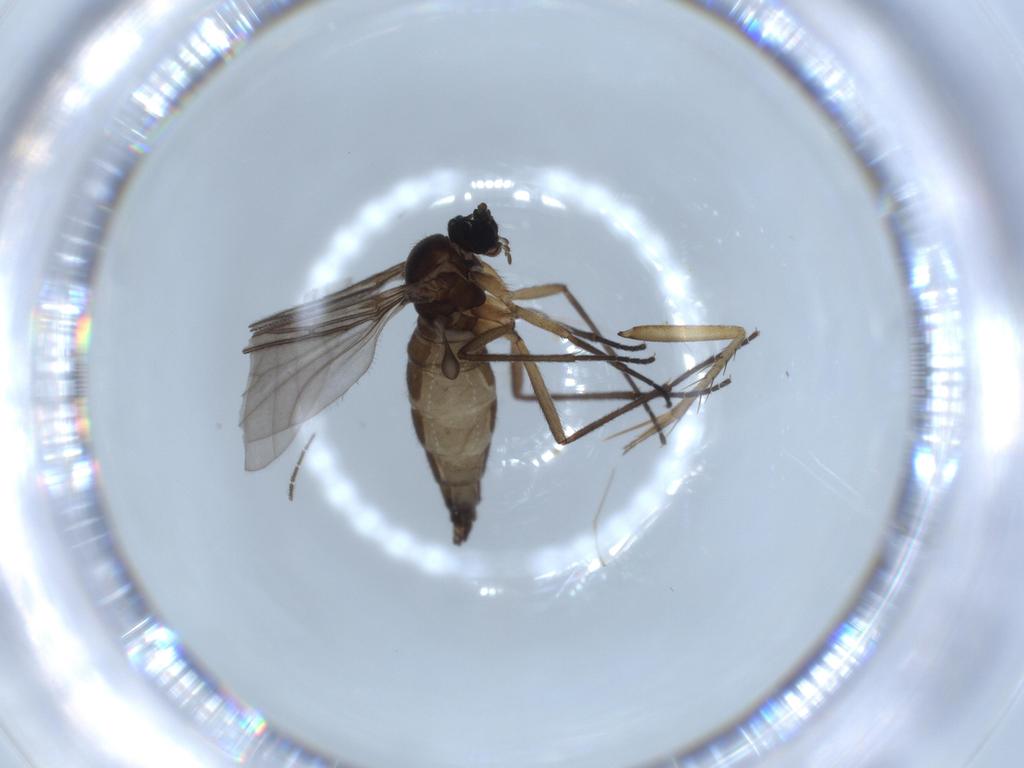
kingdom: Animalia
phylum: Arthropoda
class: Insecta
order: Diptera
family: Sciaridae
